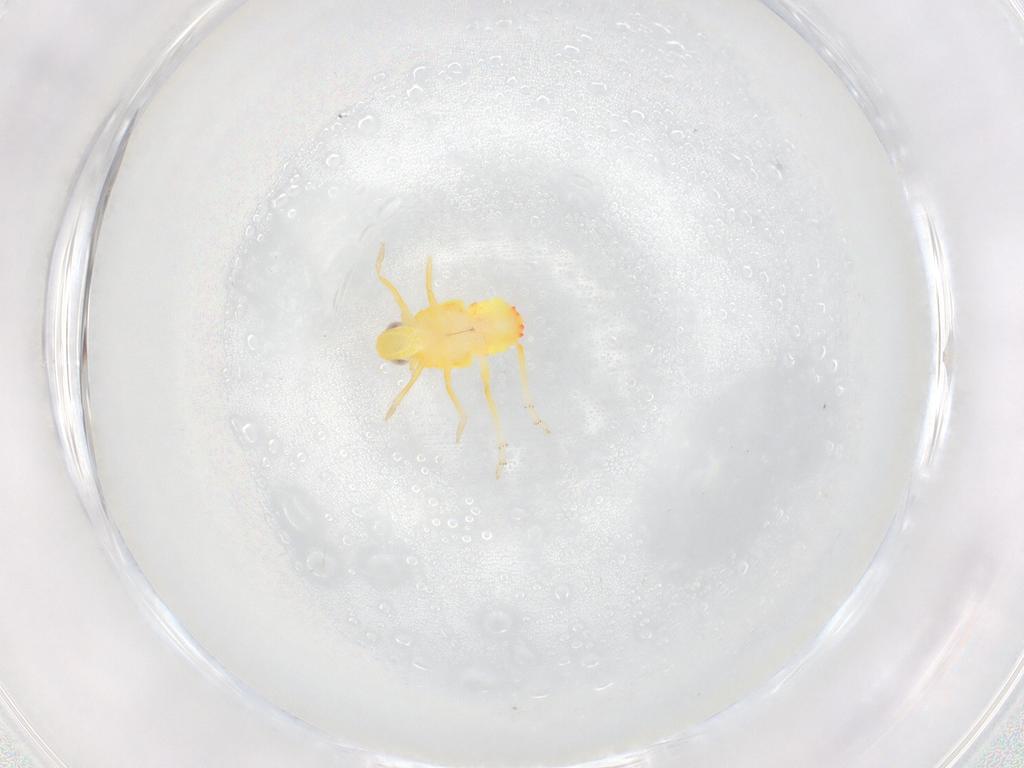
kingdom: Animalia
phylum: Arthropoda
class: Insecta
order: Hemiptera
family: Tropiduchidae
